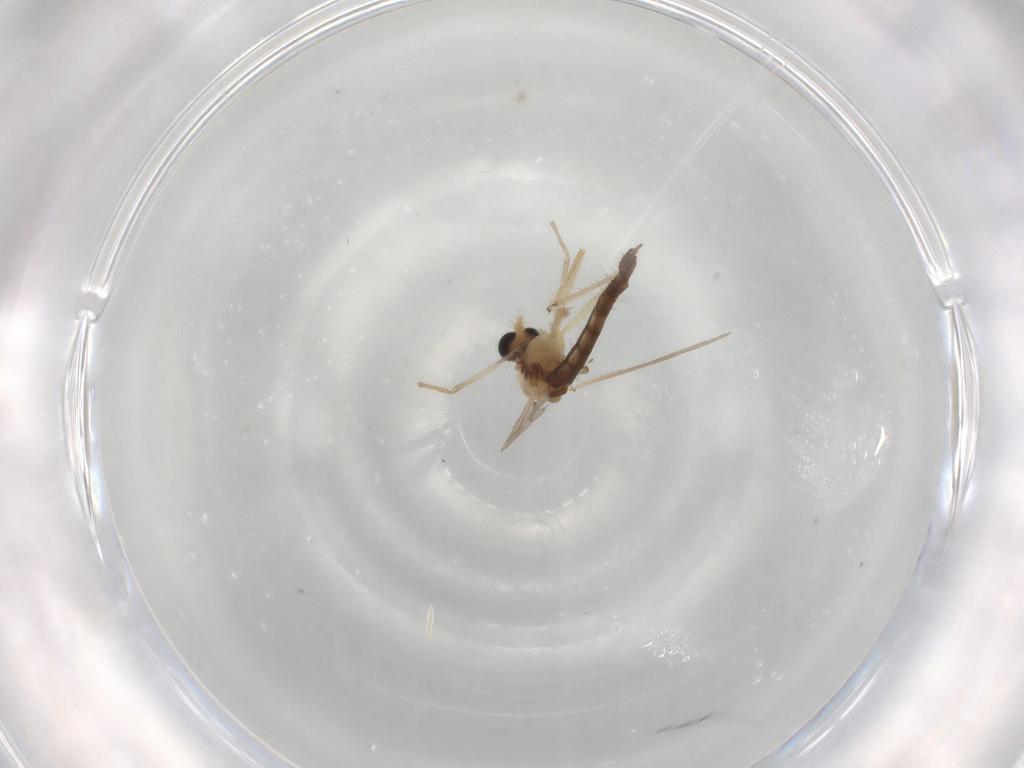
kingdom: Animalia
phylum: Arthropoda
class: Insecta
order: Diptera
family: Chironomidae
